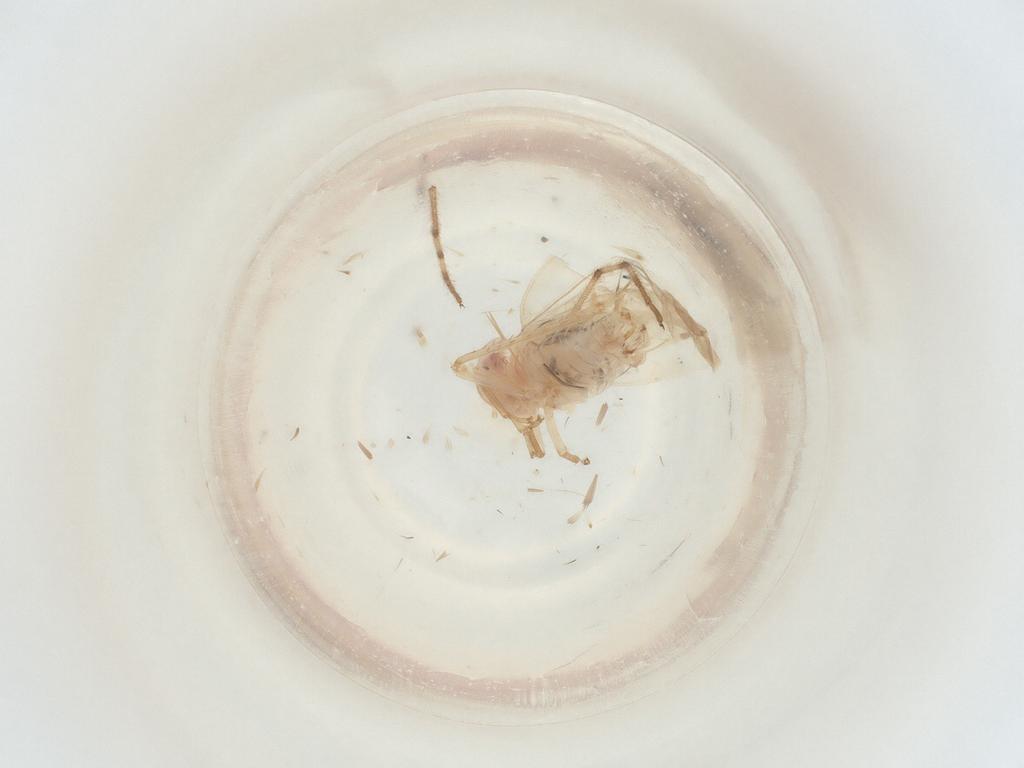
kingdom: Animalia
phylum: Arthropoda
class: Insecta
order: Hemiptera
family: Cicadellidae
